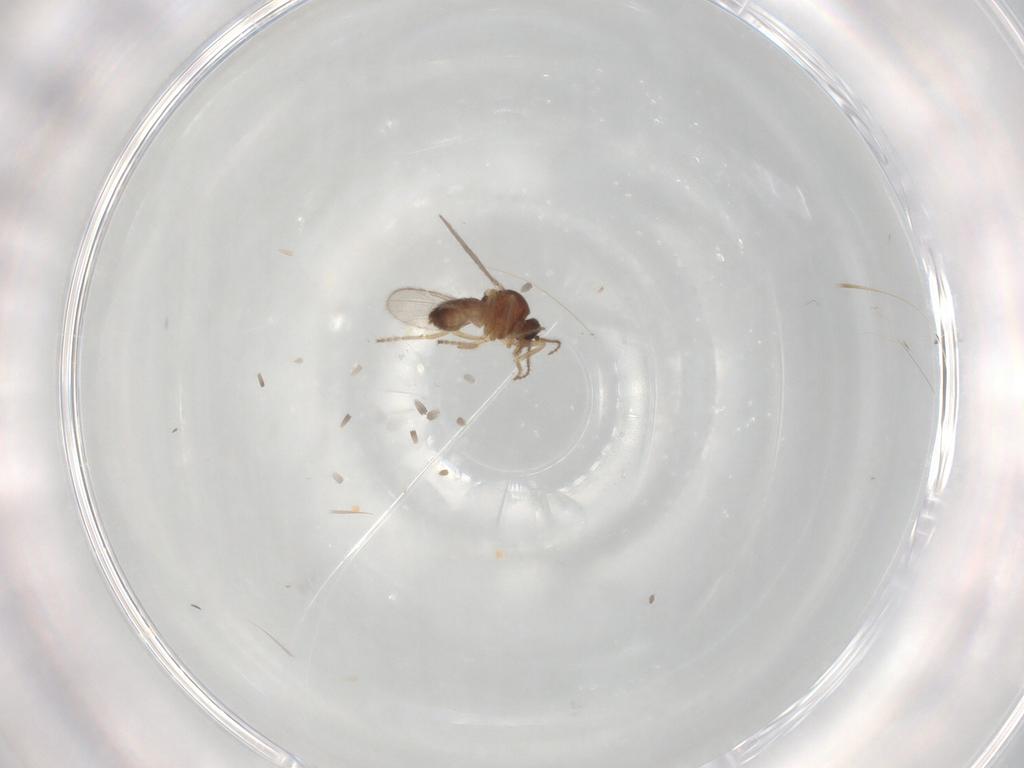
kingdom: Animalia
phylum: Arthropoda
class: Insecta
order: Diptera
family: Ceratopogonidae
